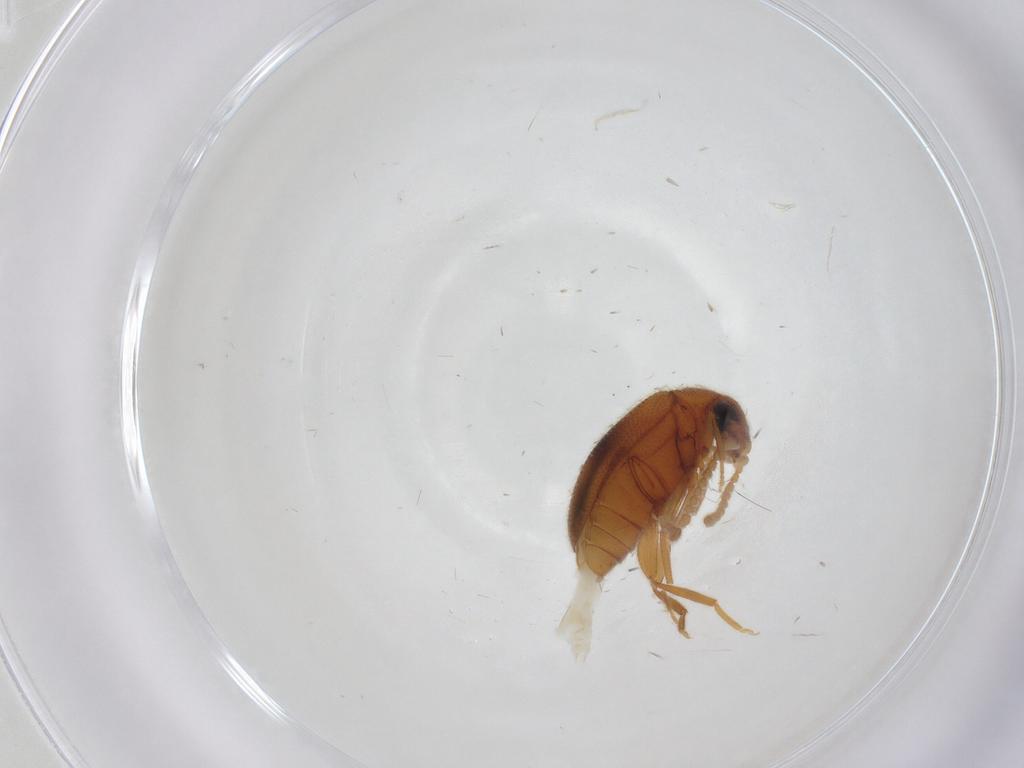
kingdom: Animalia
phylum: Arthropoda
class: Insecta
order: Coleoptera
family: Aderidae
